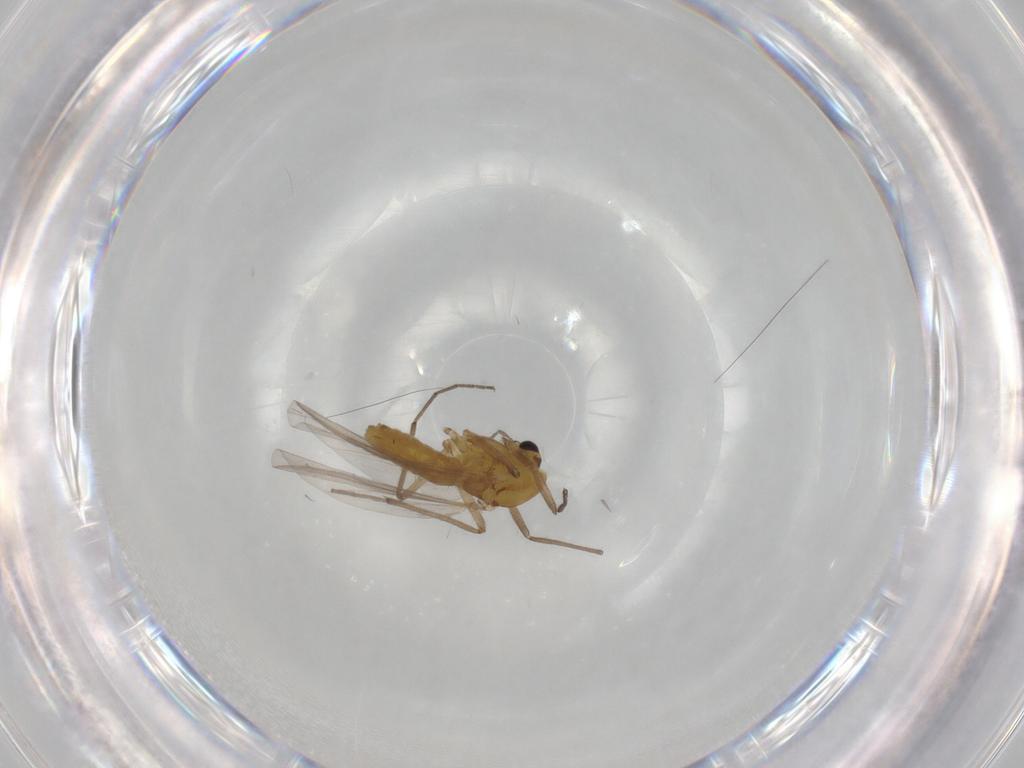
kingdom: Animalia
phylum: Arthropoda
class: Insecta
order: Diptera
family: Chironomidae
